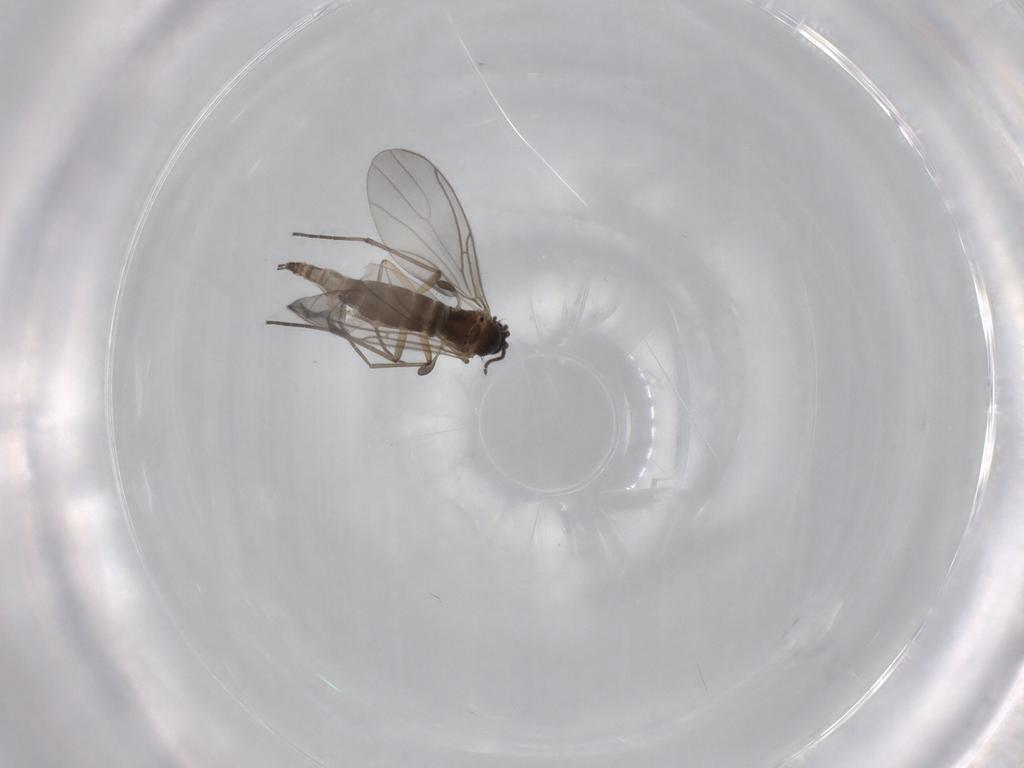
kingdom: Animalia
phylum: Arthropoda
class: Insecta
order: Diptera
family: Sciaridae
